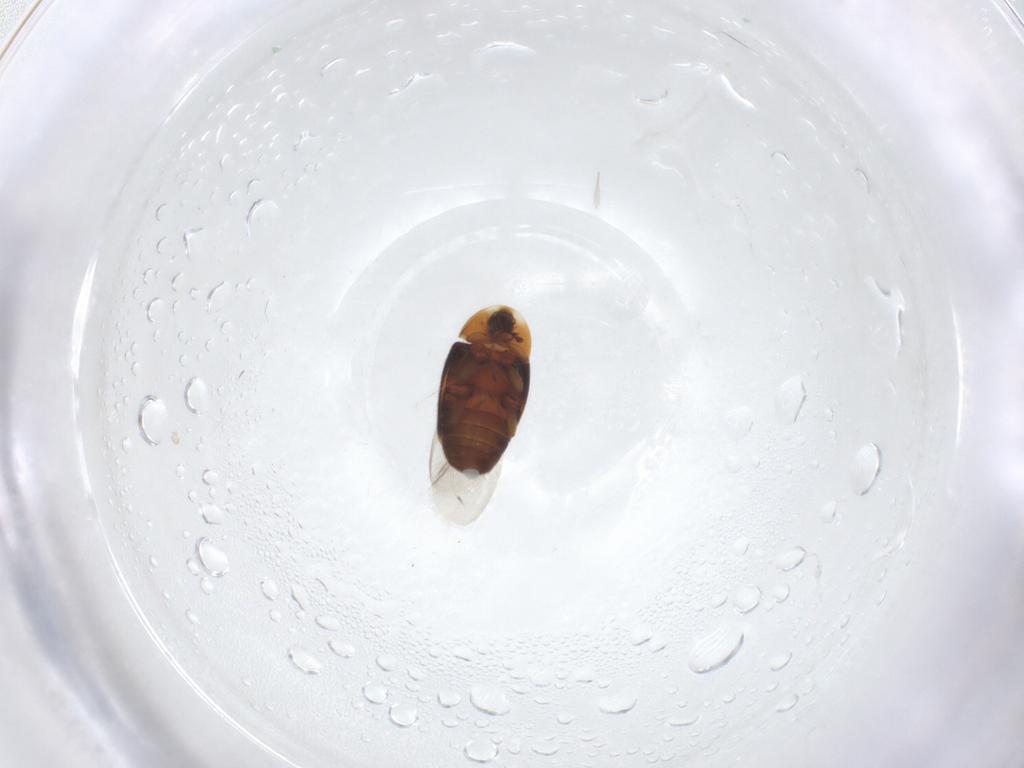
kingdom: Animalia
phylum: Arthropoda
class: Insecta
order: Coleoptera
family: Corylophidae
